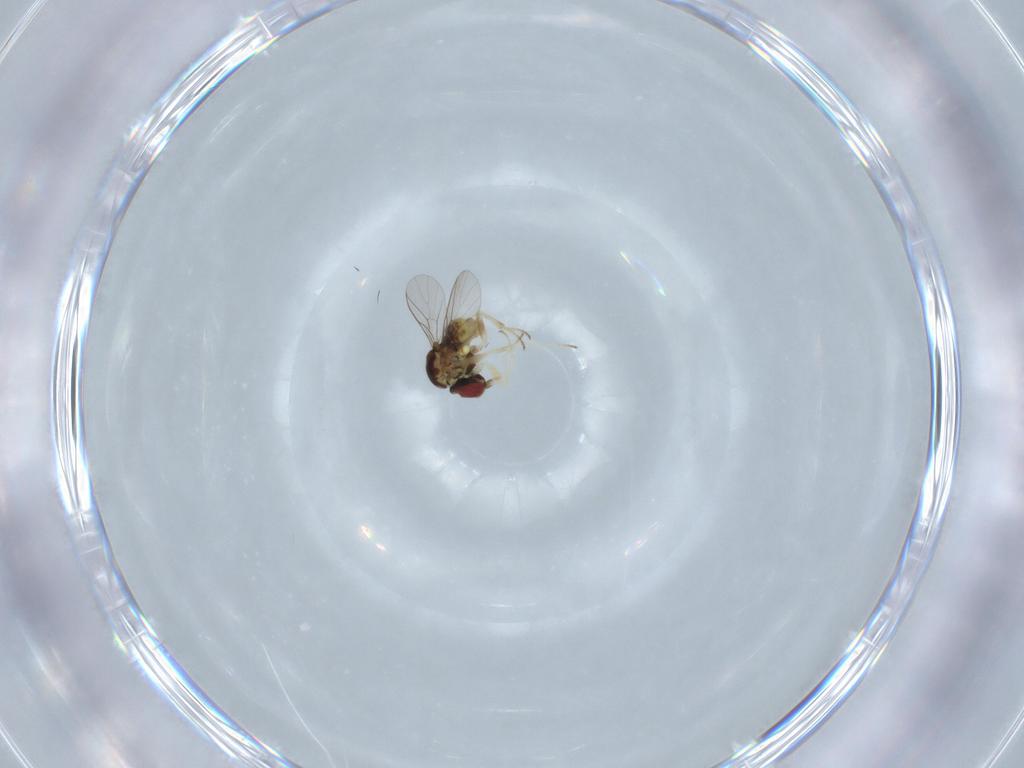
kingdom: Animalia
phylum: Arthropoda
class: Insecta
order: Diptera
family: Bombyliidae
